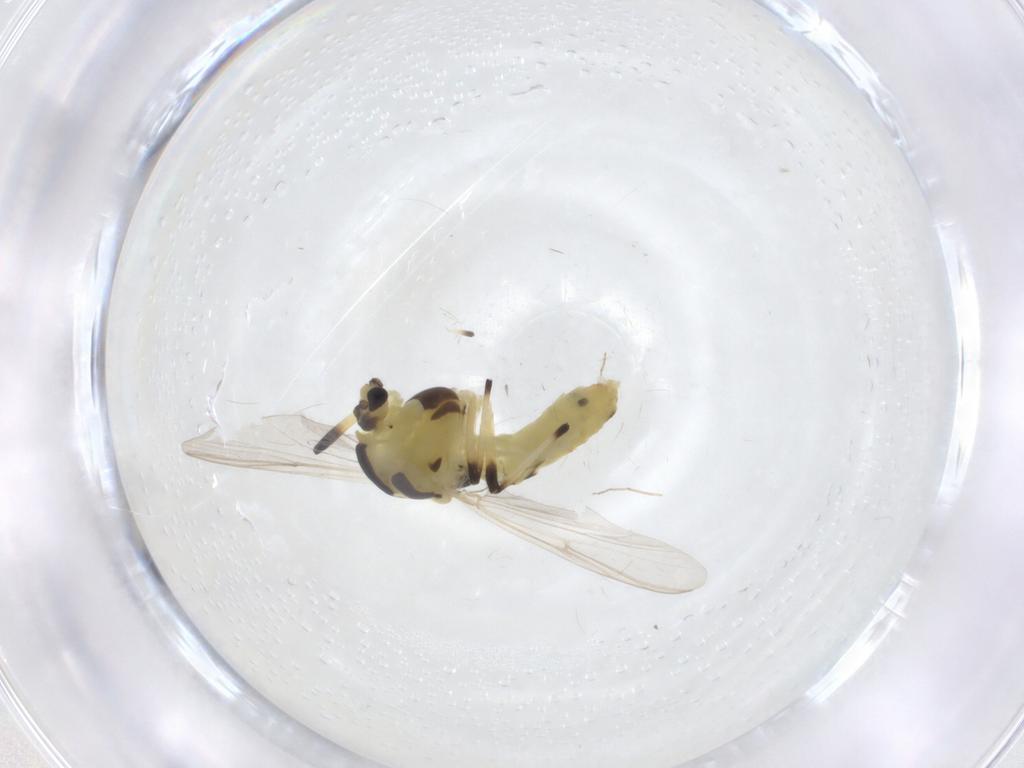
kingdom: Animalia
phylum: Arthropoda
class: Insecta
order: Diptera
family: Chironomidae
